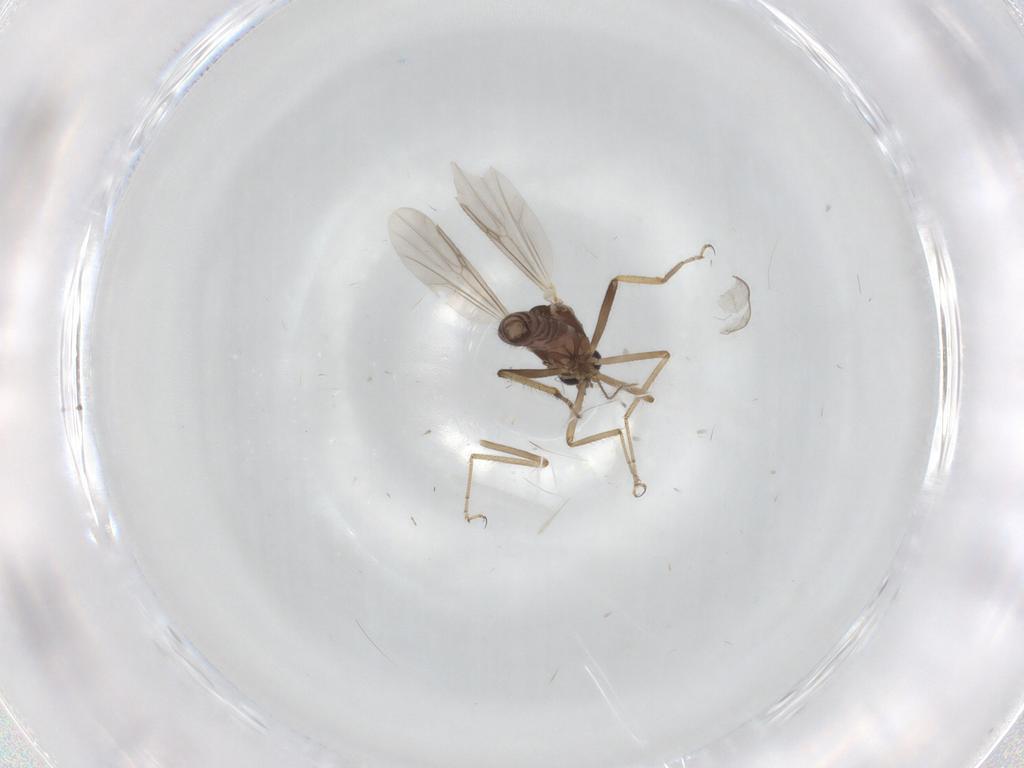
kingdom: Animalia
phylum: Arthropoda
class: Insecta
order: Diptera
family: Ceratopogonidae
